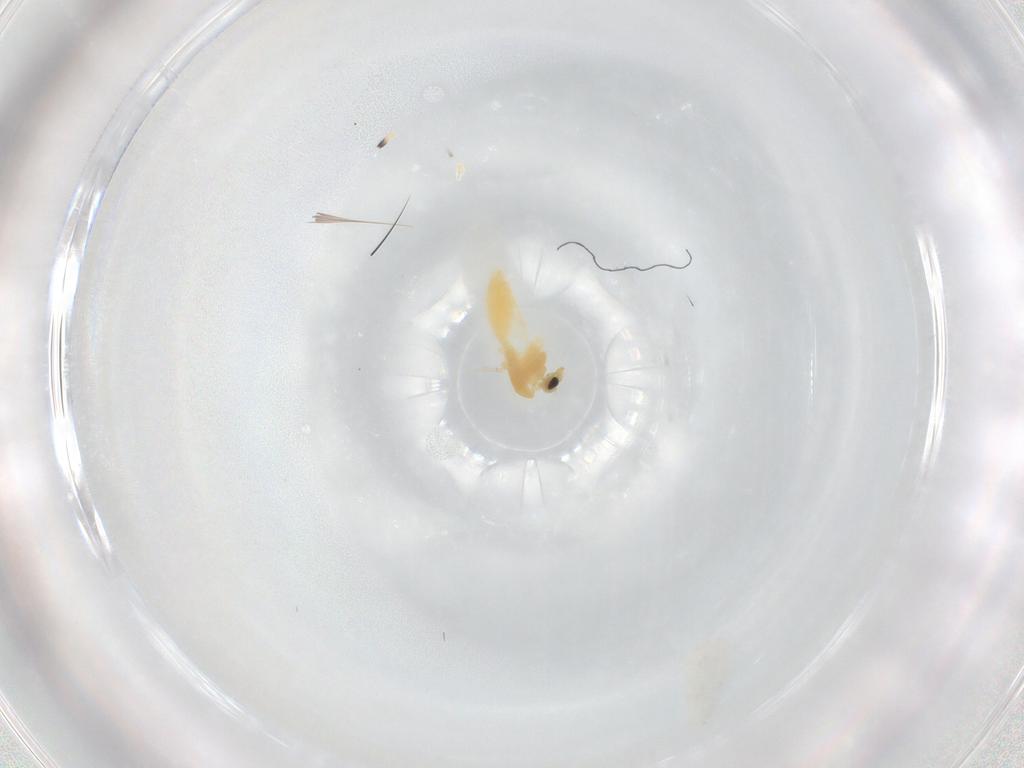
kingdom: Animalia
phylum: Arthropoda
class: Insecta
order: Diptera
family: Chironomidae
